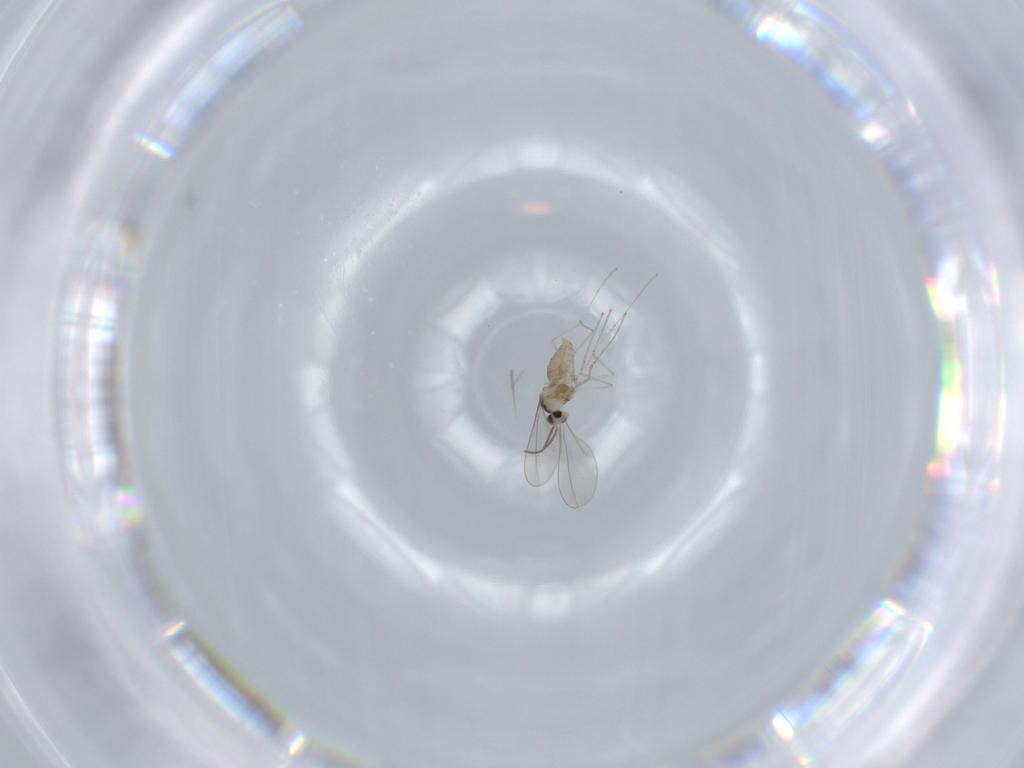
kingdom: Animalia
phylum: Arthropoda
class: Insecta
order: Diptera
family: Cecidomyiidae
